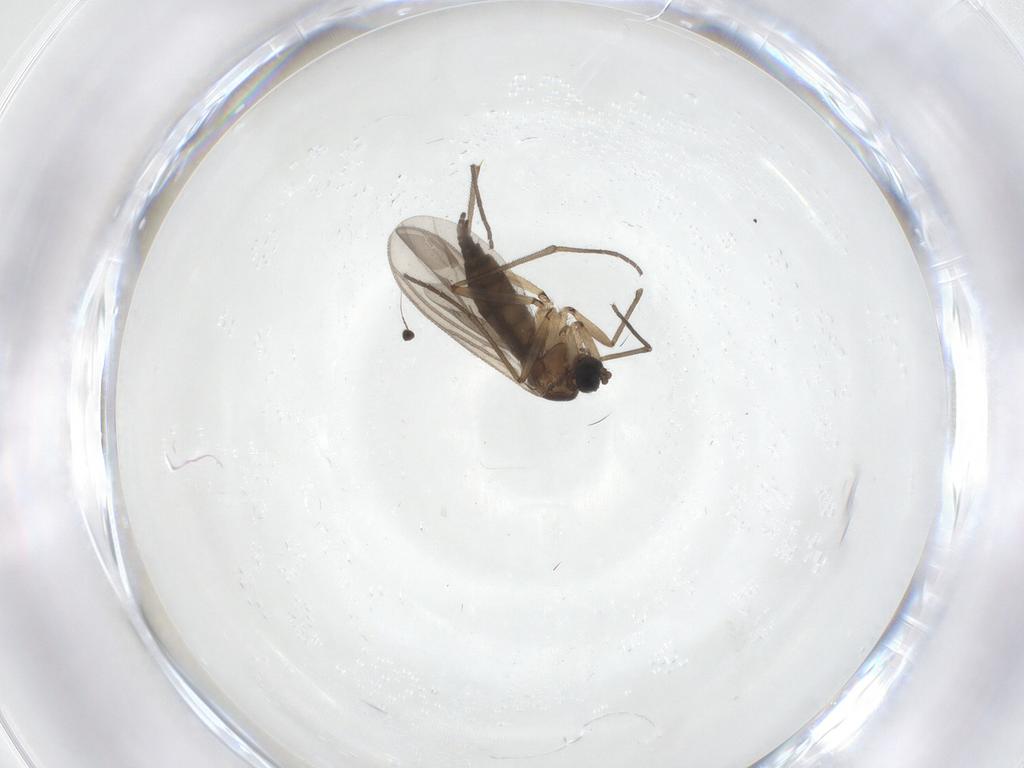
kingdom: Animalia
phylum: Arthropoda
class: Insecta
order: Diptera
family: Sciaridae
